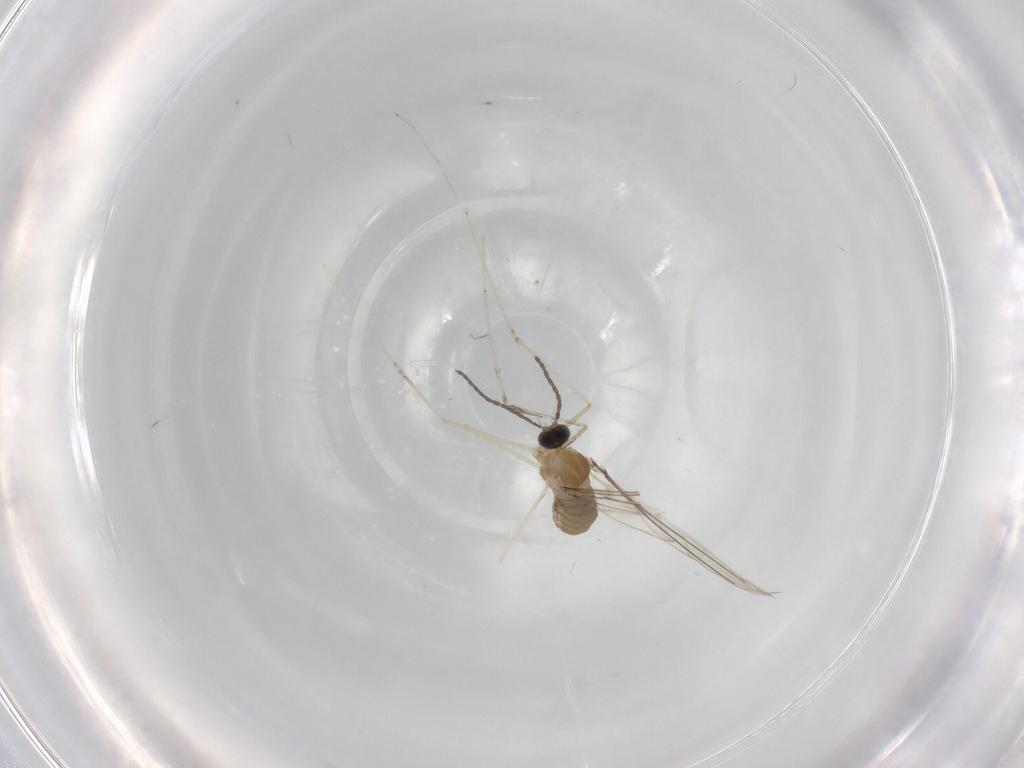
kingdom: Animalia
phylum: Arthropoda
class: Insecta
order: Diptera
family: Cecidomyiidae
